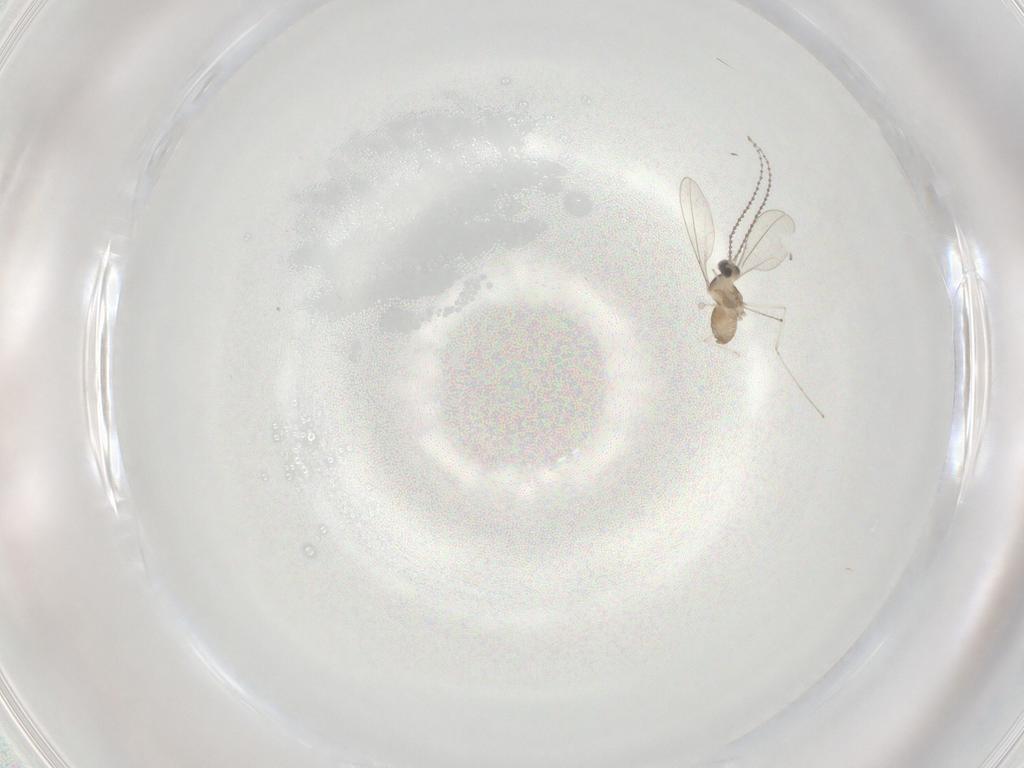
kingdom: Animalia
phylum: Arthropoda
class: Insecta
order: Diptera
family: Cecidomyiidae
